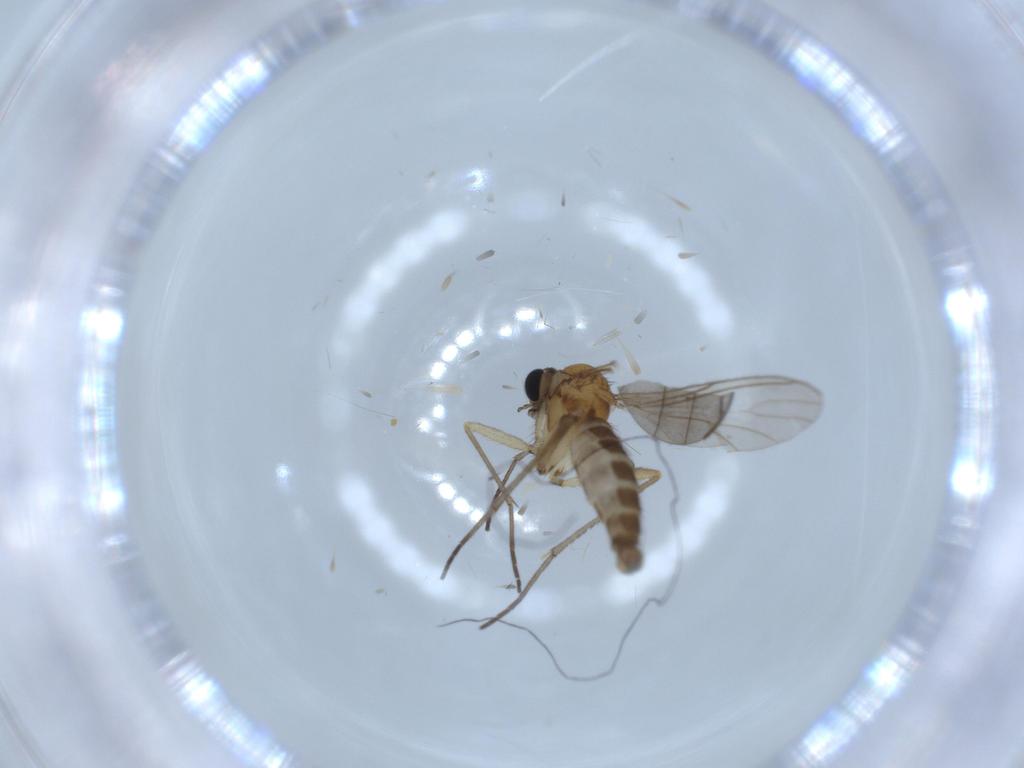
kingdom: Animalia
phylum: Arthropoda
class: Insecta
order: Diptera
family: Sciaridae
